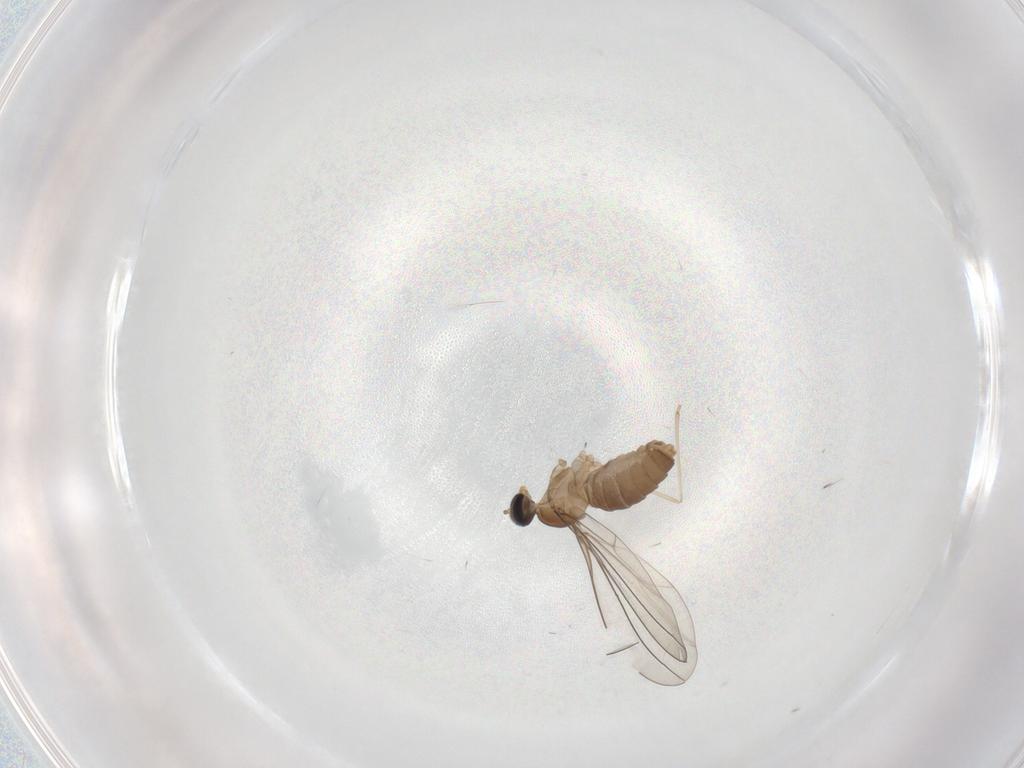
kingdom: Animalia
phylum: Arthropoda
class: Insecta
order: Diptera
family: Cecidomyiidae
